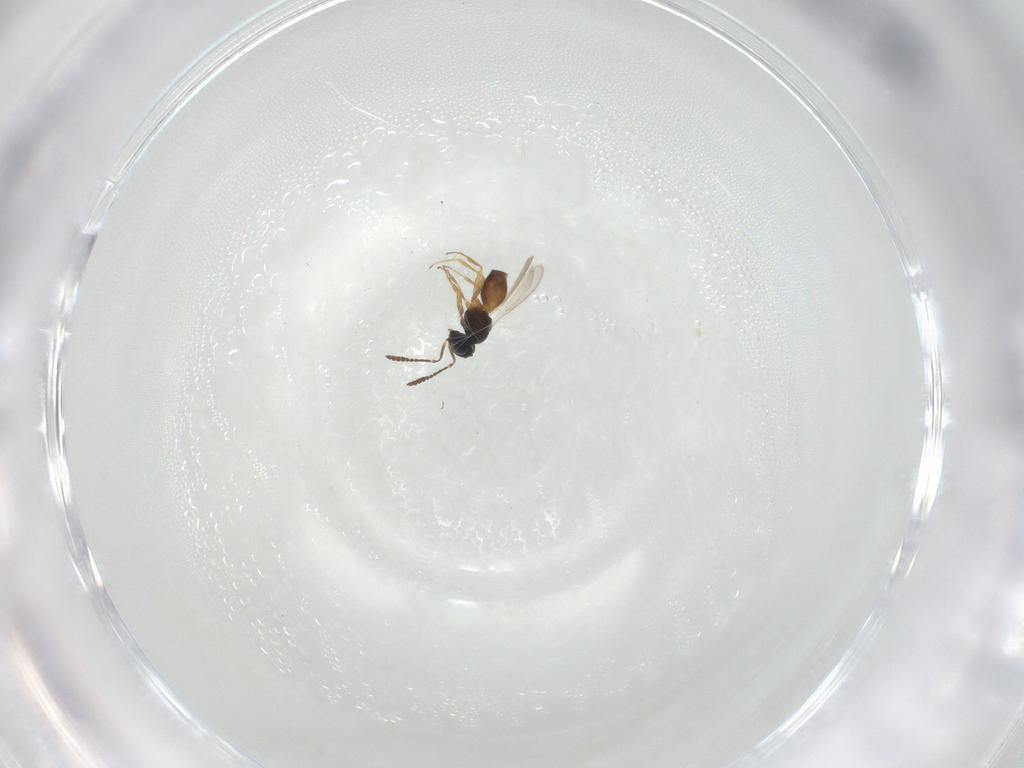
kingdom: Animalia
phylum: Arthropoda
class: Insecta
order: Hymenoptera
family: Scelionidae
